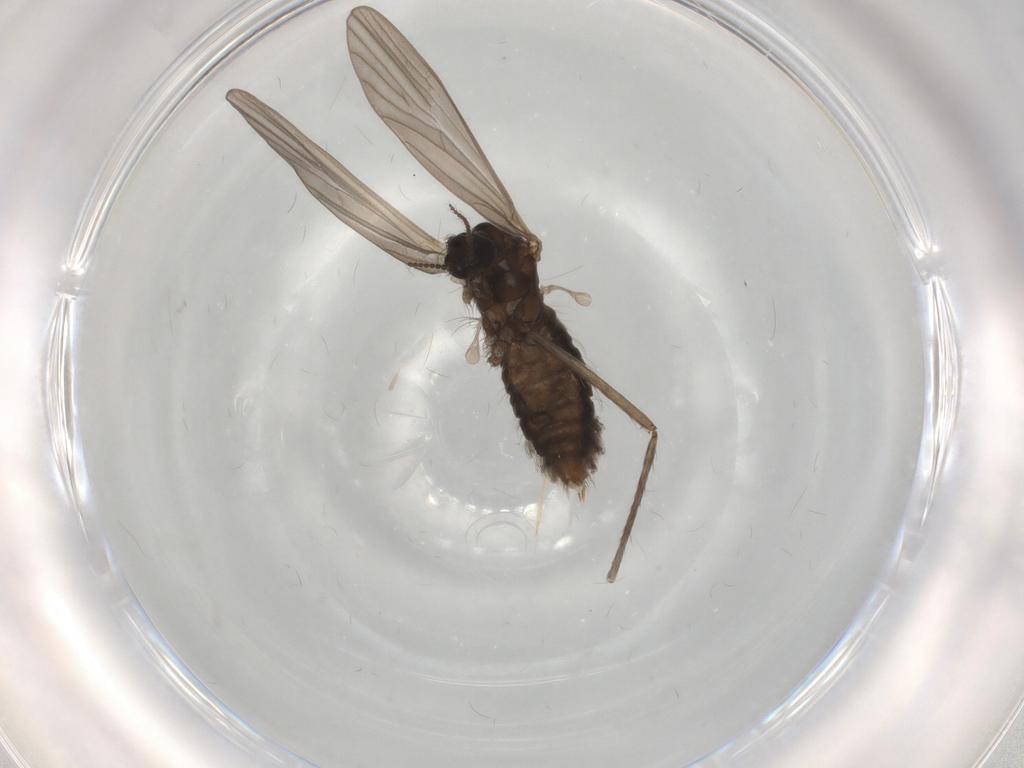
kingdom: Animalia
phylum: Arthropoda
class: Insecta
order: Diptera
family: Psychodidae
